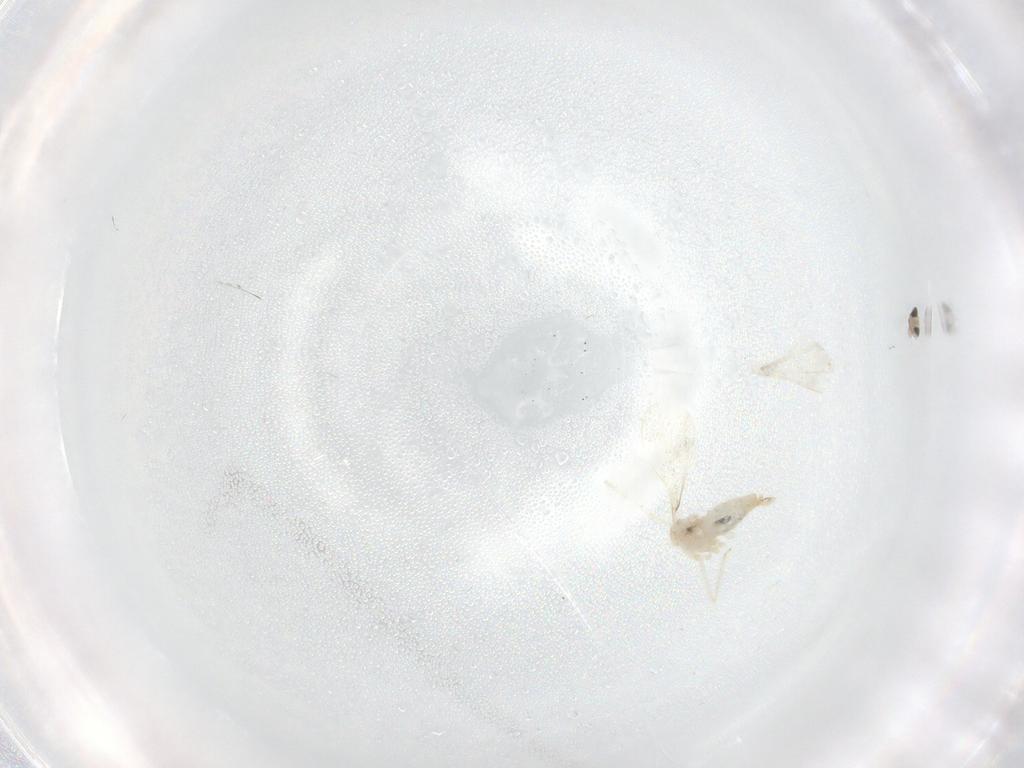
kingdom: Animalia
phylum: Arthropoda
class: Insecta
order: Diptera
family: Cecidomyiidae
